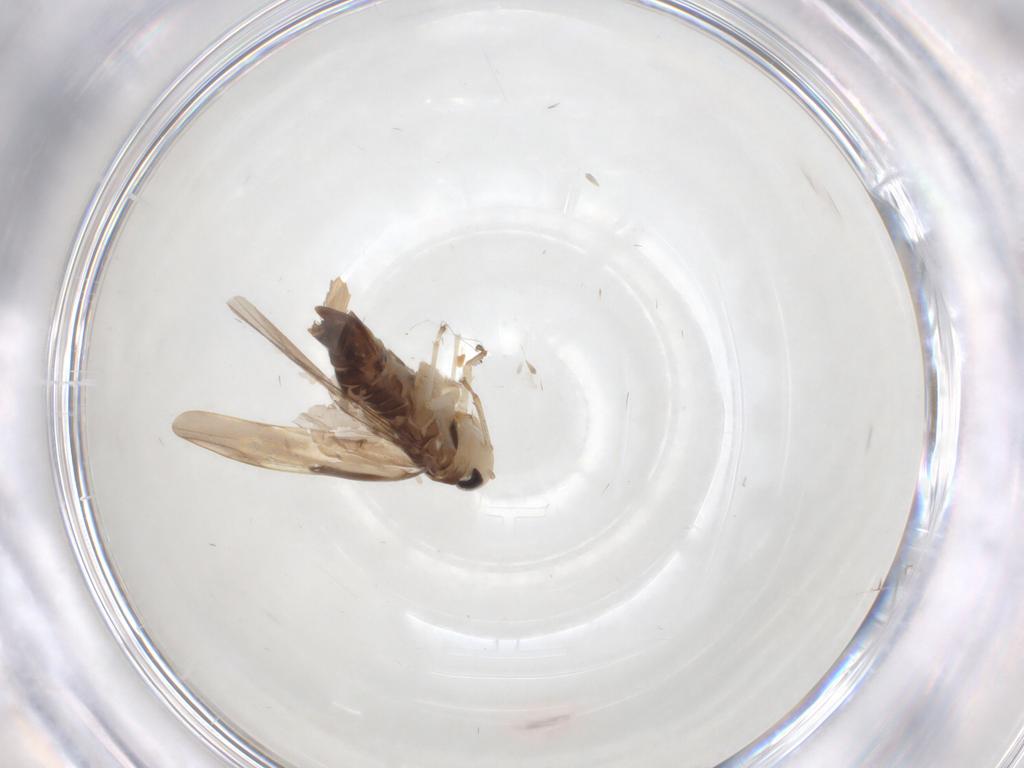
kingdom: Animalia
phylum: Arthropoda
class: Insecta
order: Hemiptera
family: Cicadellidae
